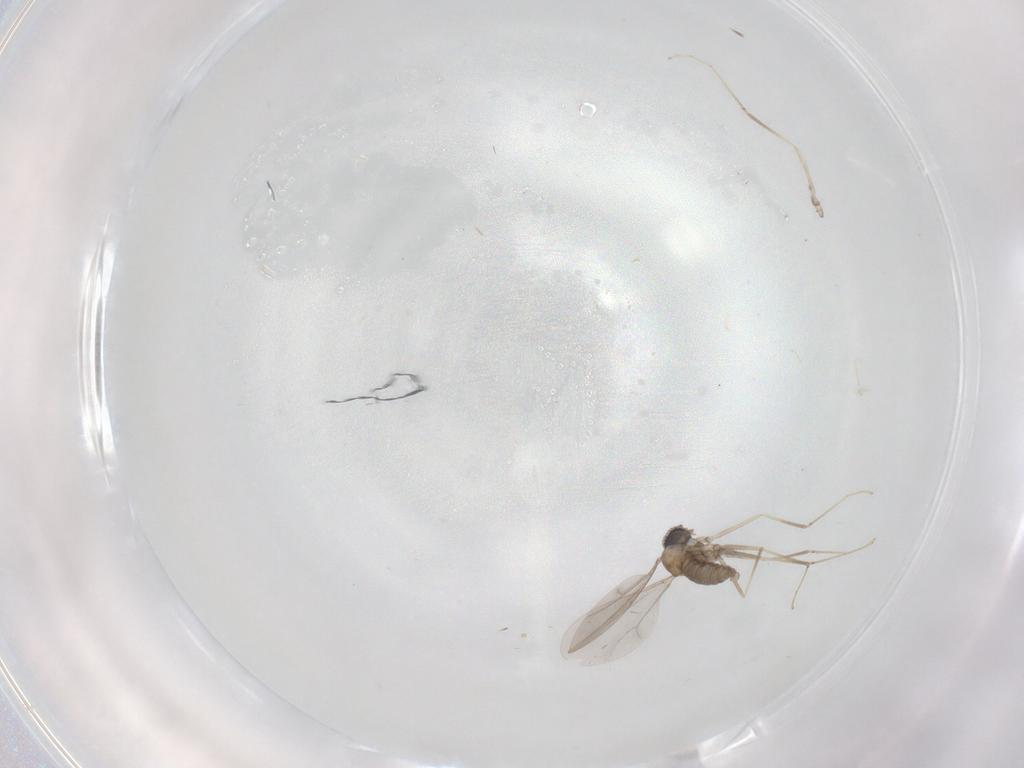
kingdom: Animalia
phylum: Arthropoda
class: Insecta
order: Diptera
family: Cecidomyiidae
